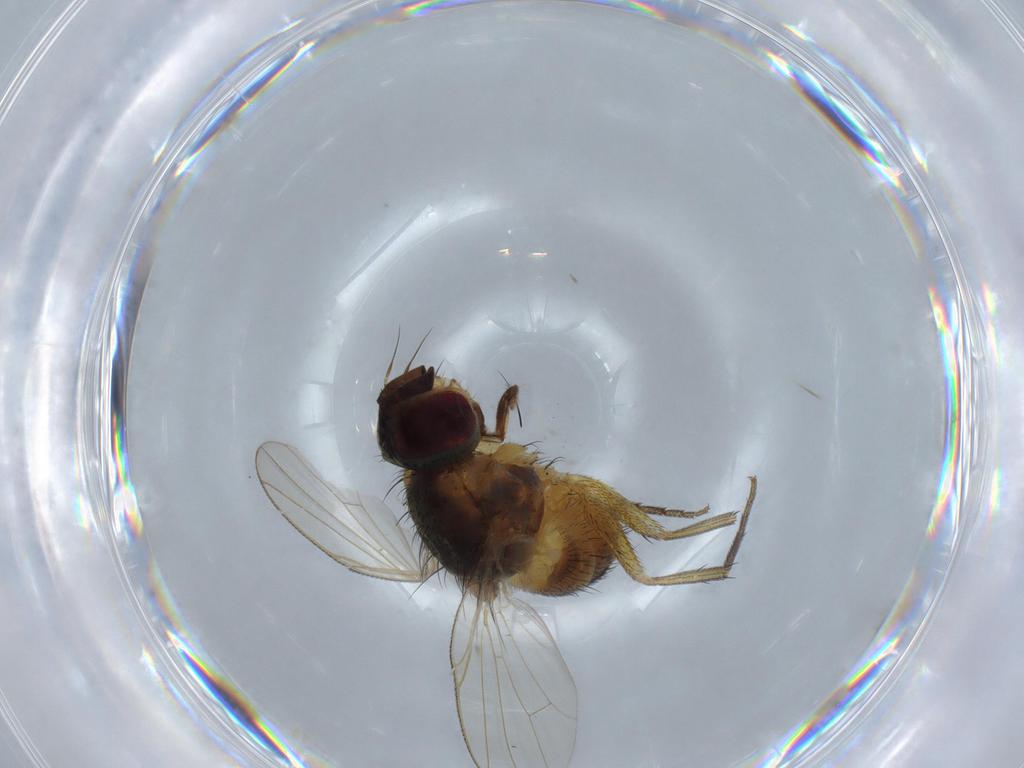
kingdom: Animalia
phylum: Arthropoda
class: Insecta
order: Diptera
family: Muscidae
